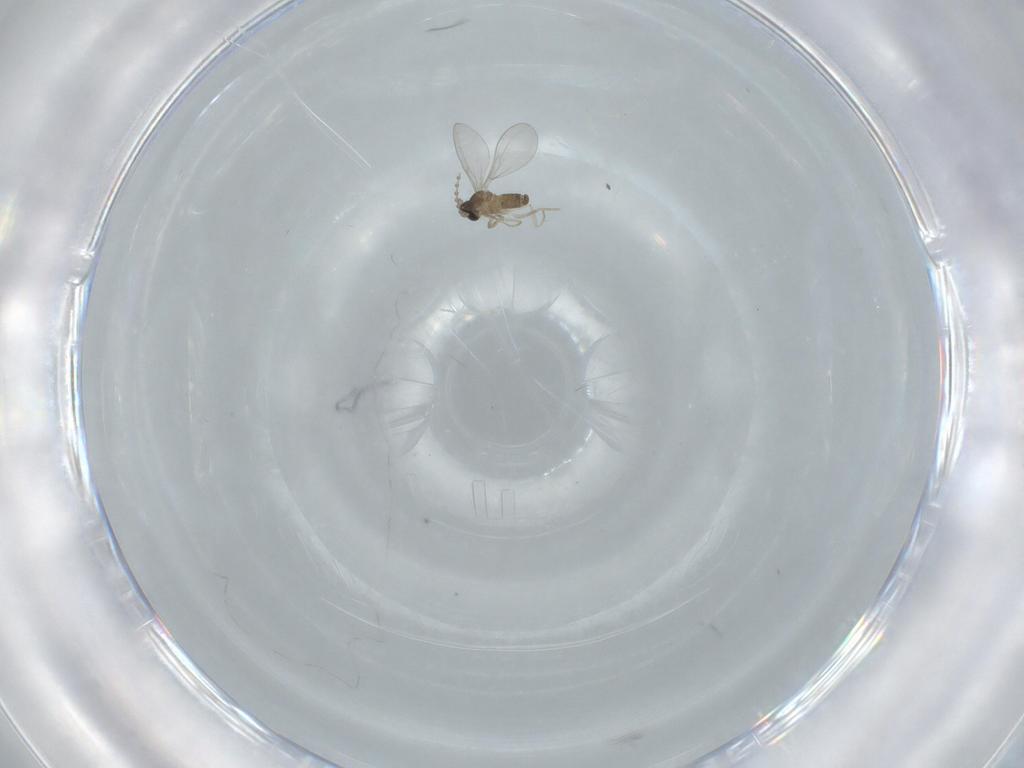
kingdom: Animalia
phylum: Arthropoda
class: Insecta
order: Diptera
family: Cecidomyiidae
